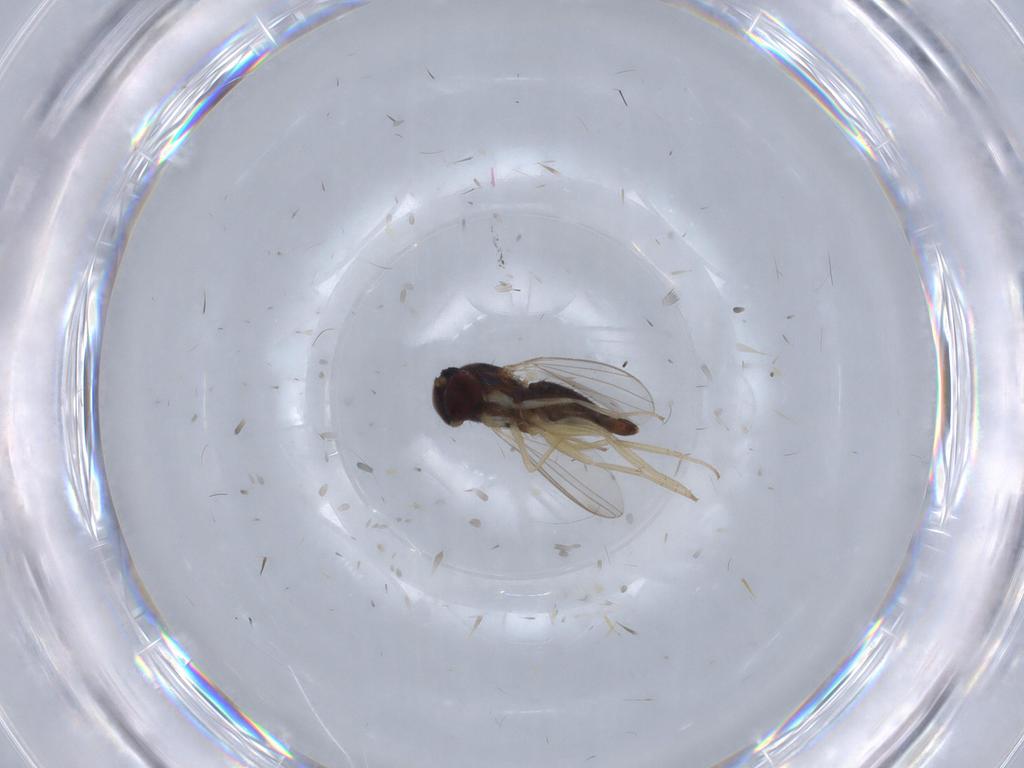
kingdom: Animalia
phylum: Arthropoda
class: Insecta
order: Diptera
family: Dolichopodidae
